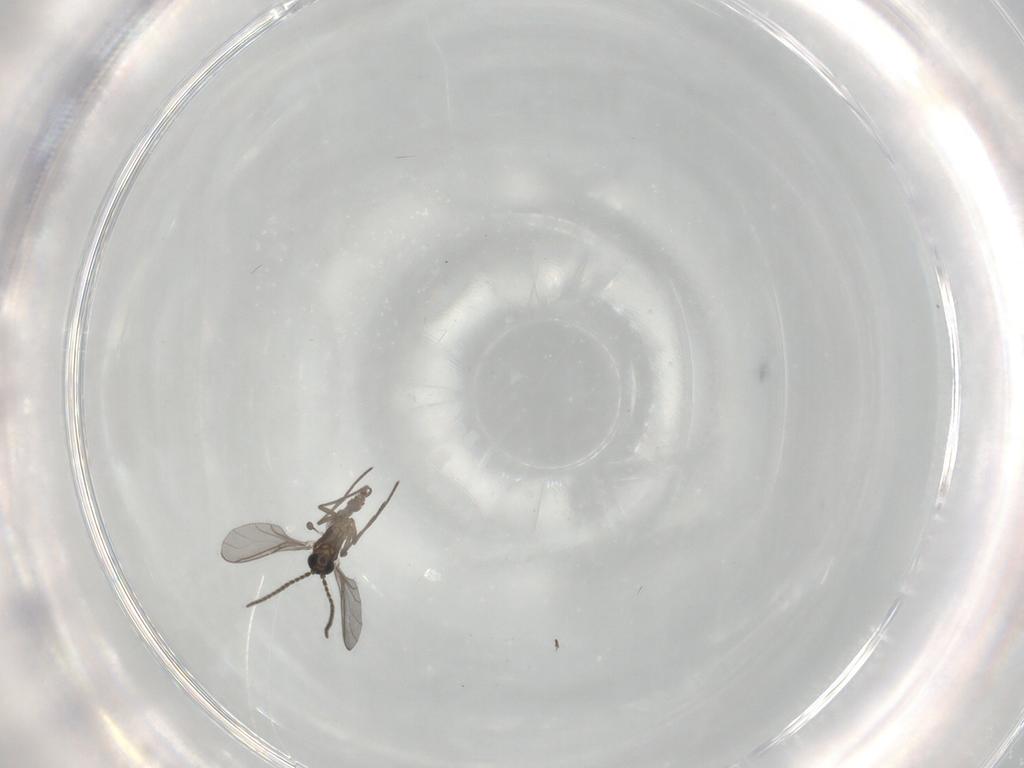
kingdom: Animalia
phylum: Arthropoda
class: Insecta
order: Diptera
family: Sciaridae
